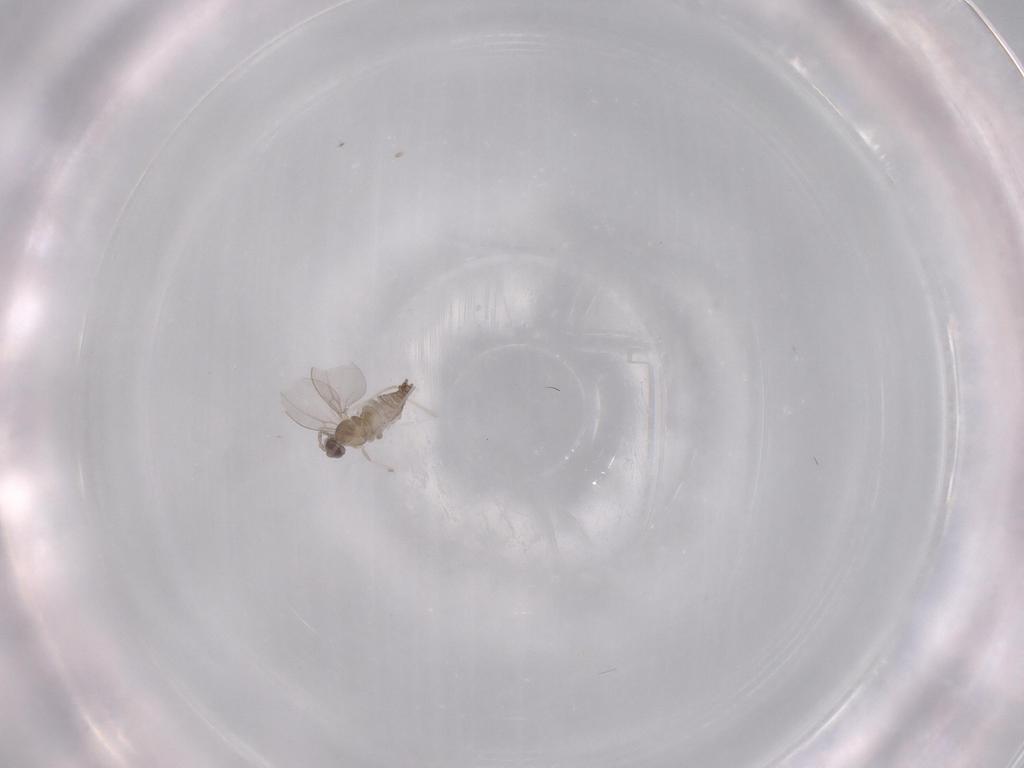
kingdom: Animalia
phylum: Arthropoda
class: Insecta
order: Diptera
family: Cecidomyiidae
